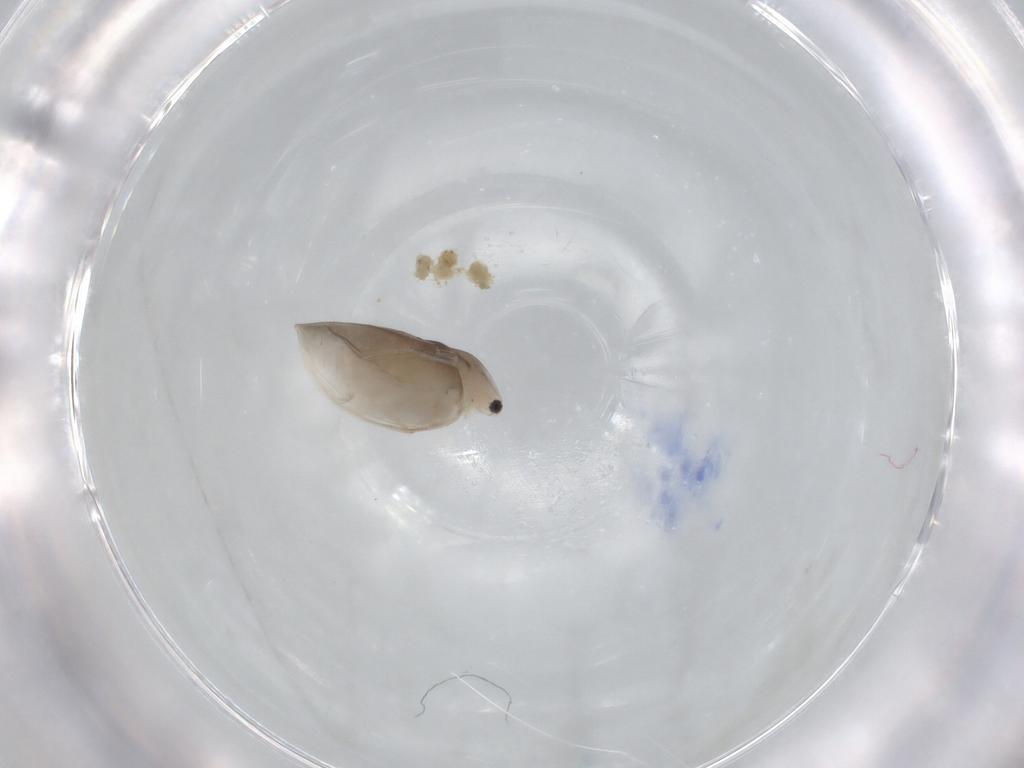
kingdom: Animalia
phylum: Arthropoda
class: Branchiopoda
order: Diplostraca
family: Daphniidae
